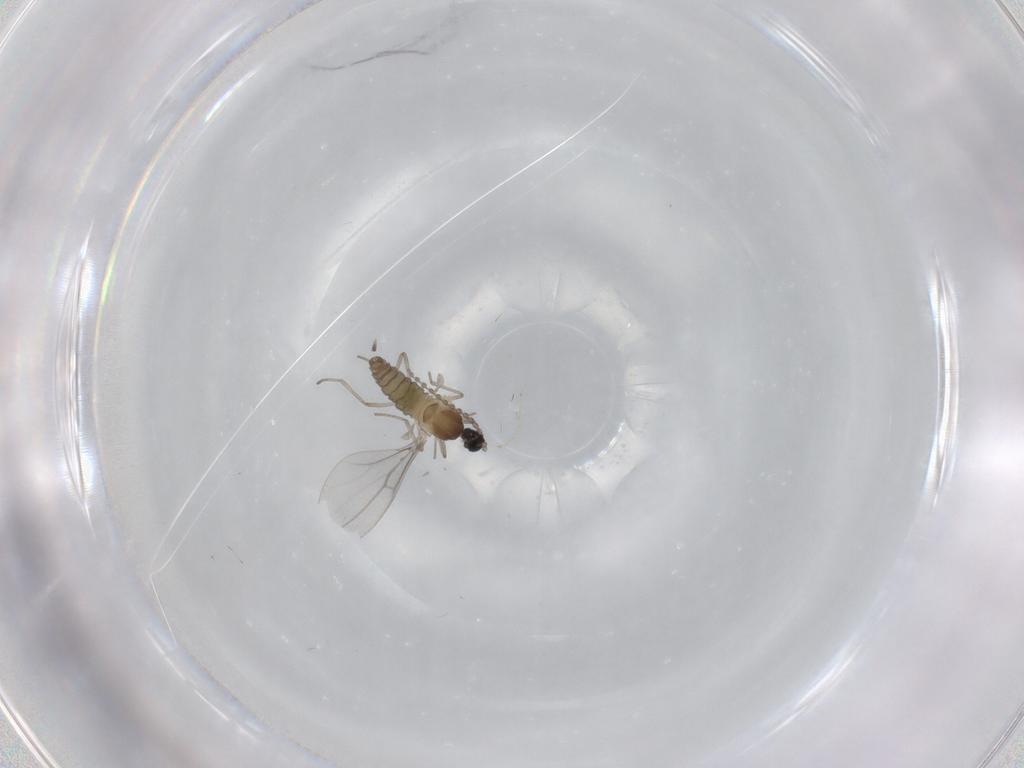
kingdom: Animalia
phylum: Arthropoda
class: Insecta
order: Diptera
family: Cecidomyiidae
